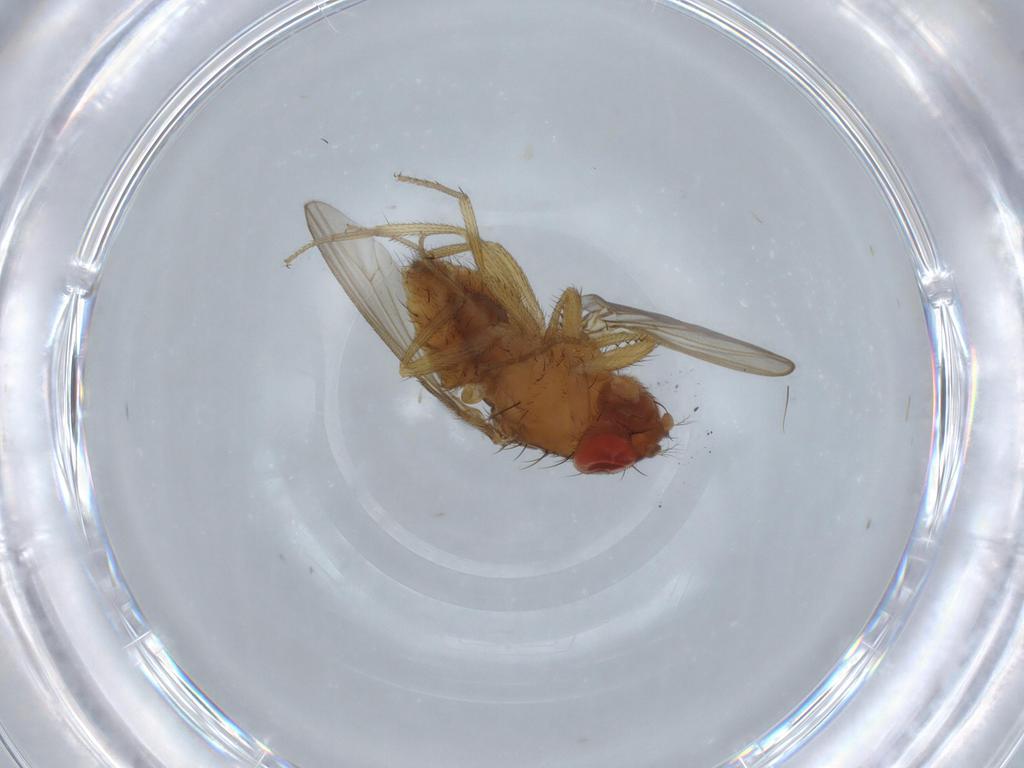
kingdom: Animalia
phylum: Arthropoda
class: Insecta
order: Diptera
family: Drosophilidae
